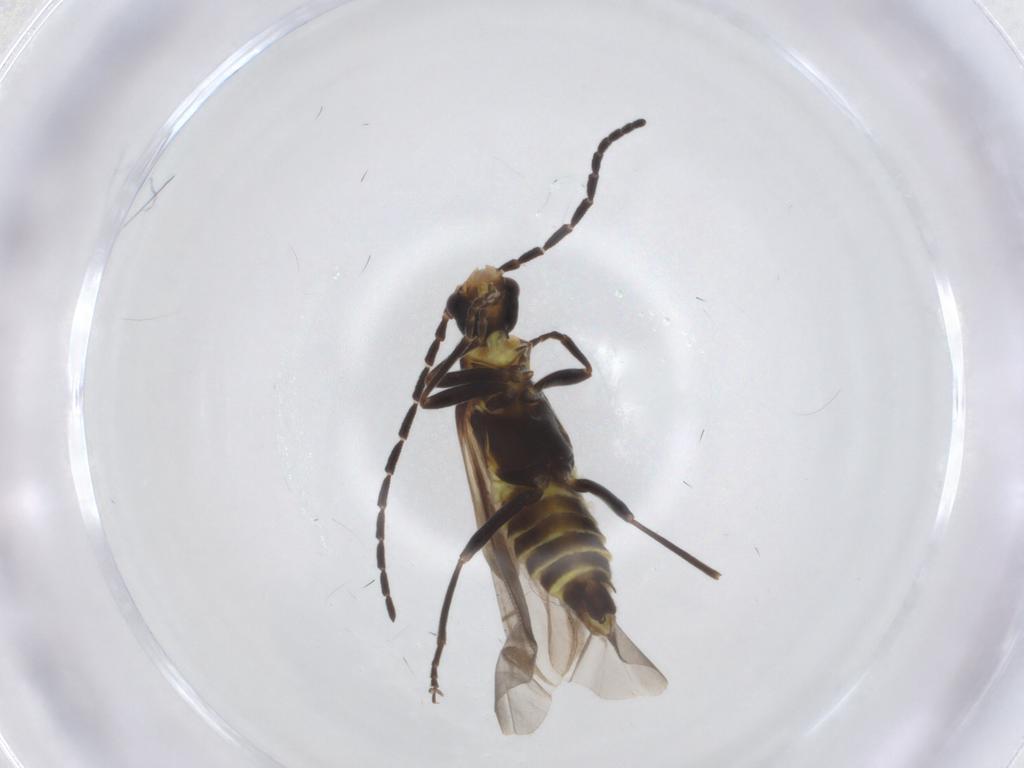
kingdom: Animalia
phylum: Arthropoda
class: Insecta
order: Coleoptera
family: Cantharidae
